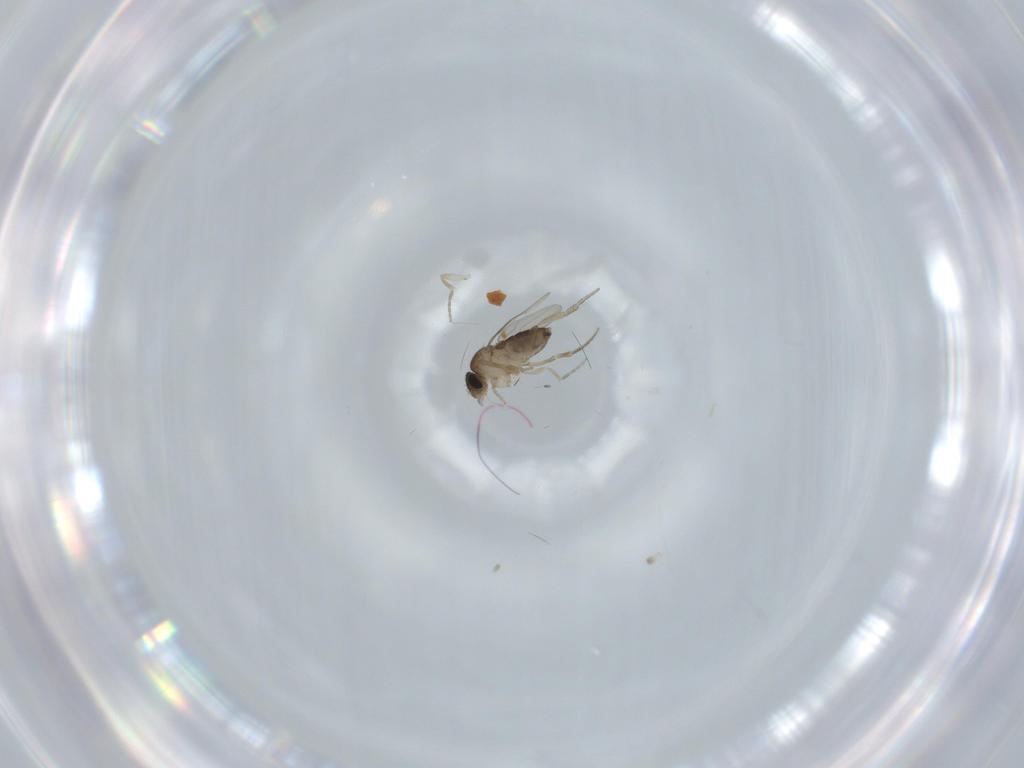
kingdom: Animalia
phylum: Arthropoda
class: Insecta
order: Diptera
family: Phoridae
